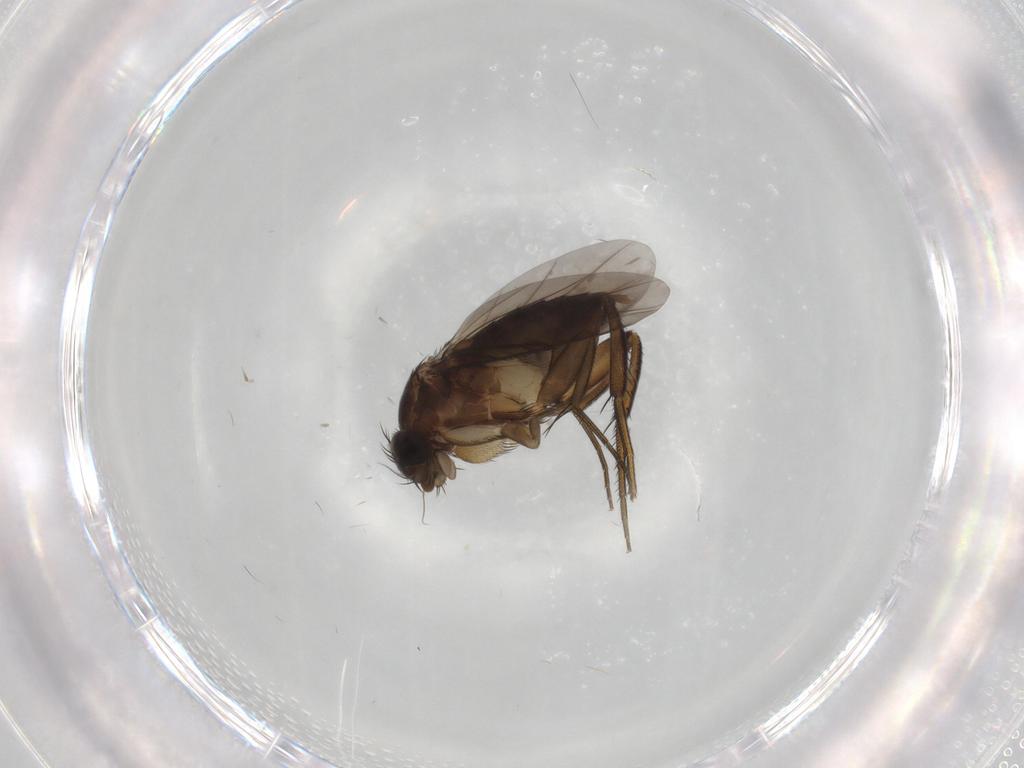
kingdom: Animalia
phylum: Arthropoda
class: Insecta
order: Diptera
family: Phoridae
